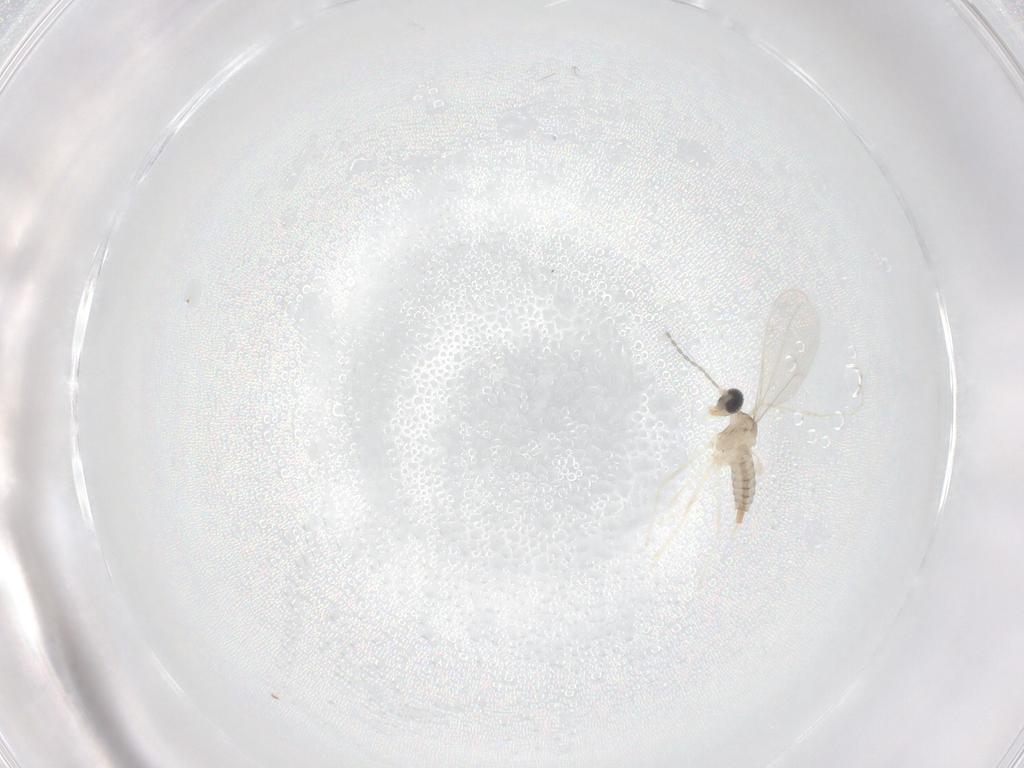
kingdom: Animalia
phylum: Arthropoda
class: Insecta
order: Diptera
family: Cecidomyiidae
